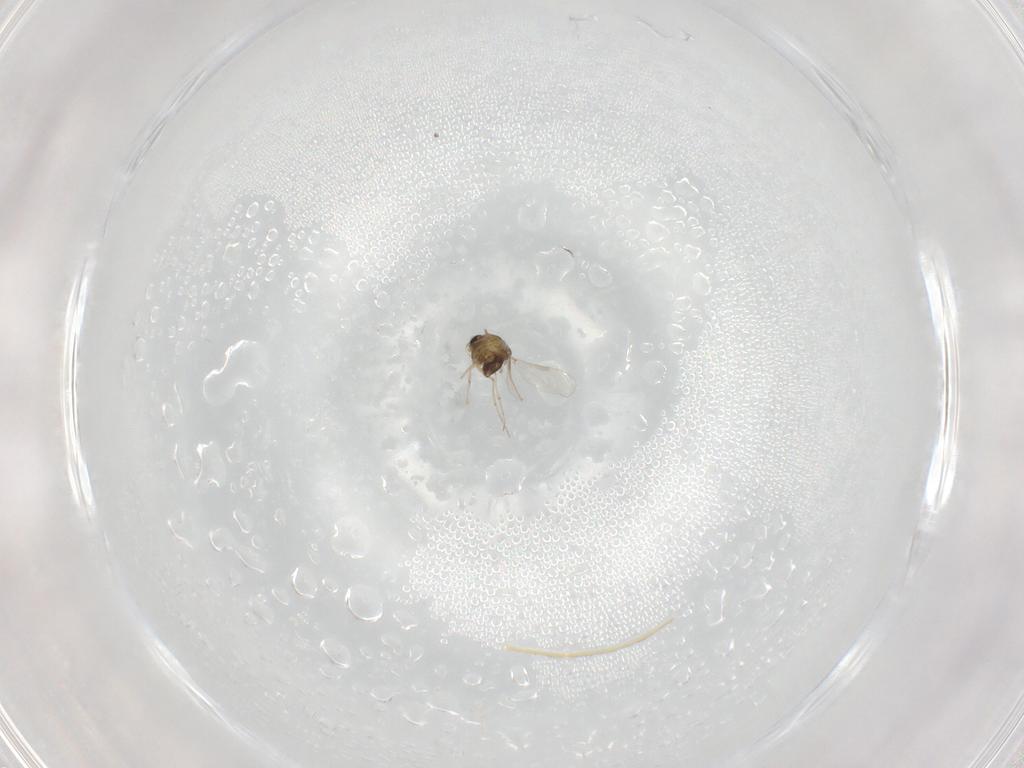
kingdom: Animalia
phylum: Arthropoda
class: Insecta
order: Diptera
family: Chironomidae
